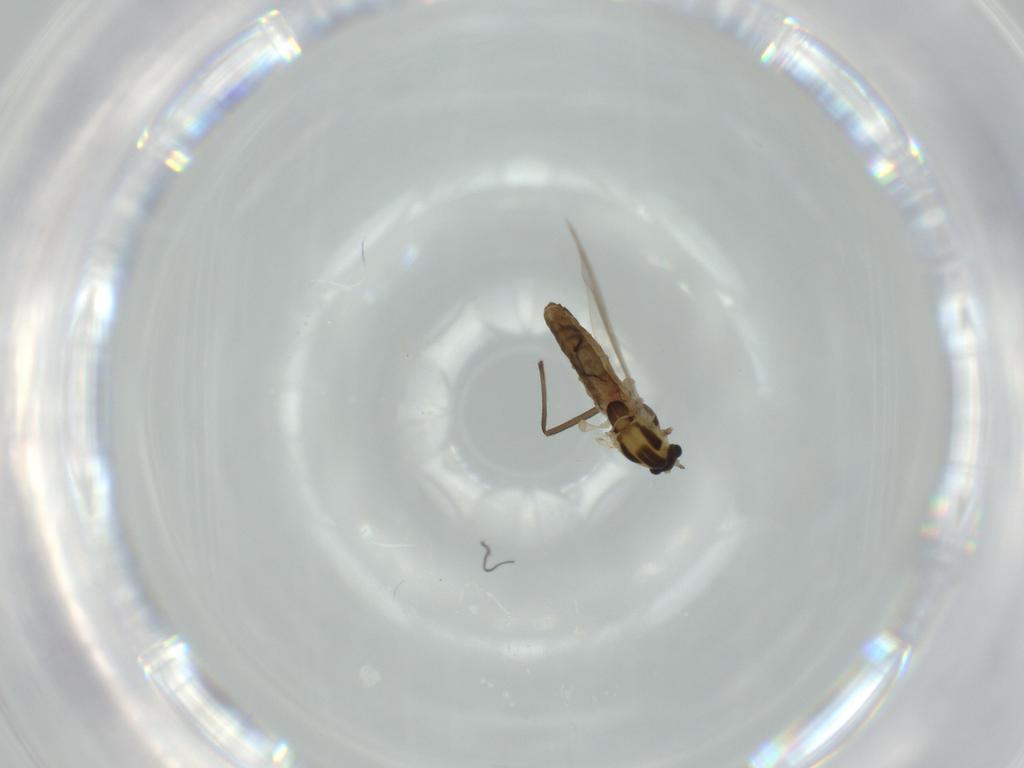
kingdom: Animalia
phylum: Arthropoda
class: Insecta
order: Diptera
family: Chironomidae
